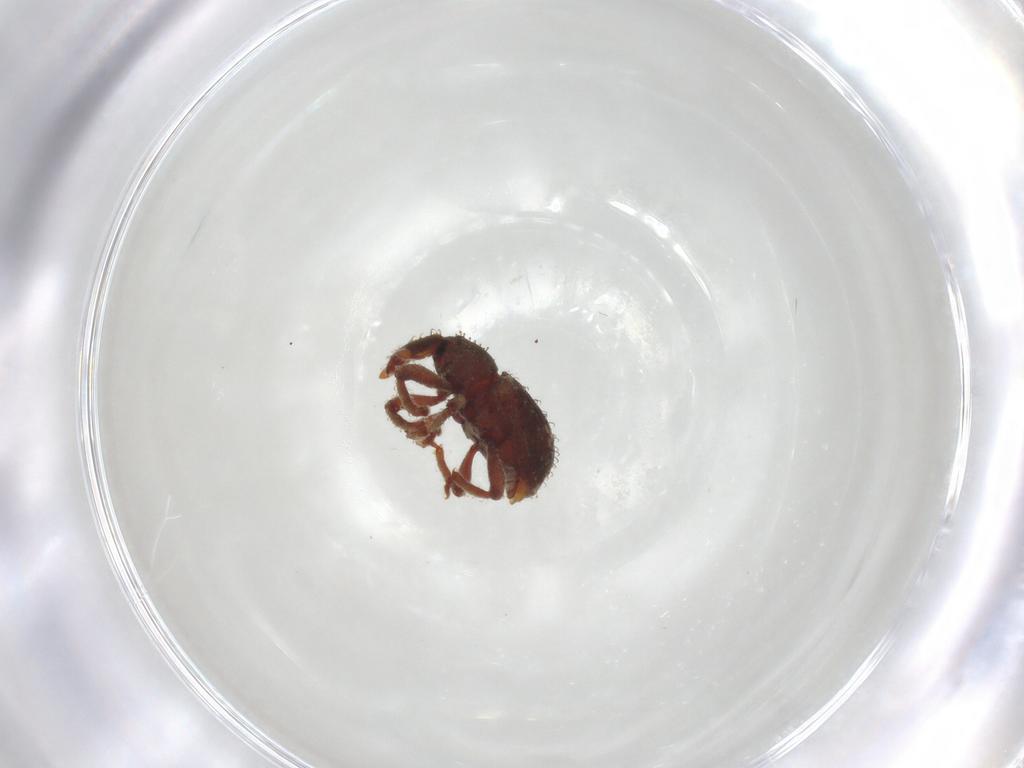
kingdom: Animalia
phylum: Arthropoda
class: Insecta
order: Coleoptera
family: Curculionidae
